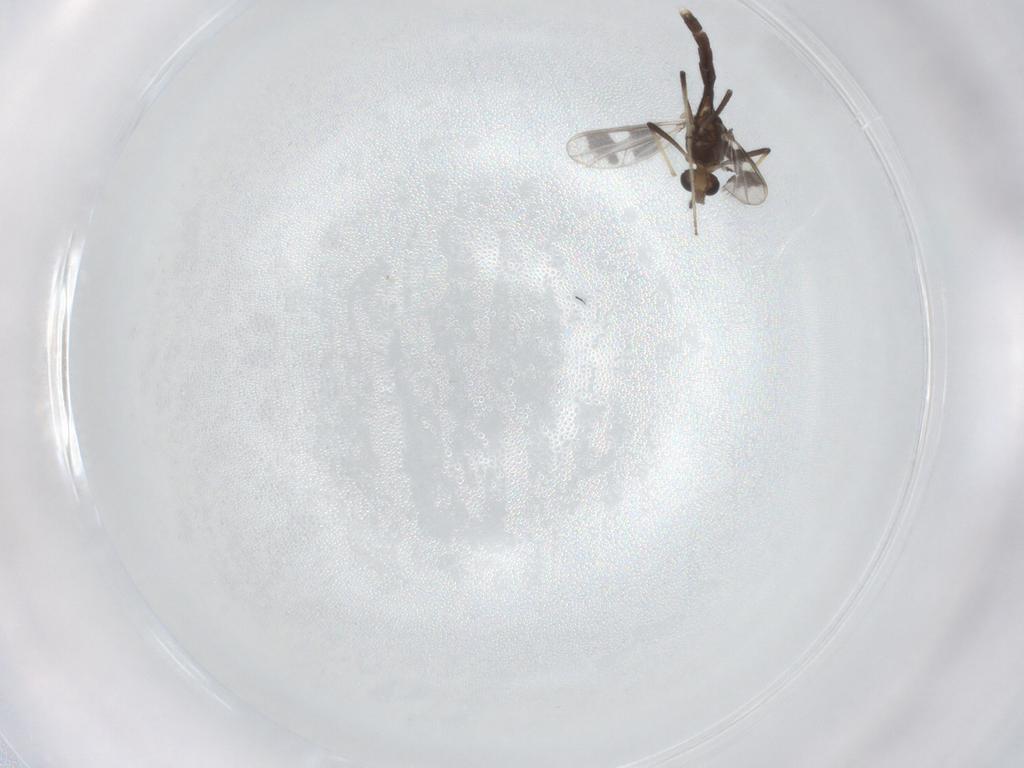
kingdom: Animalia
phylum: Arthropoda
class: Insecta
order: Diptera
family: Chironomidae
